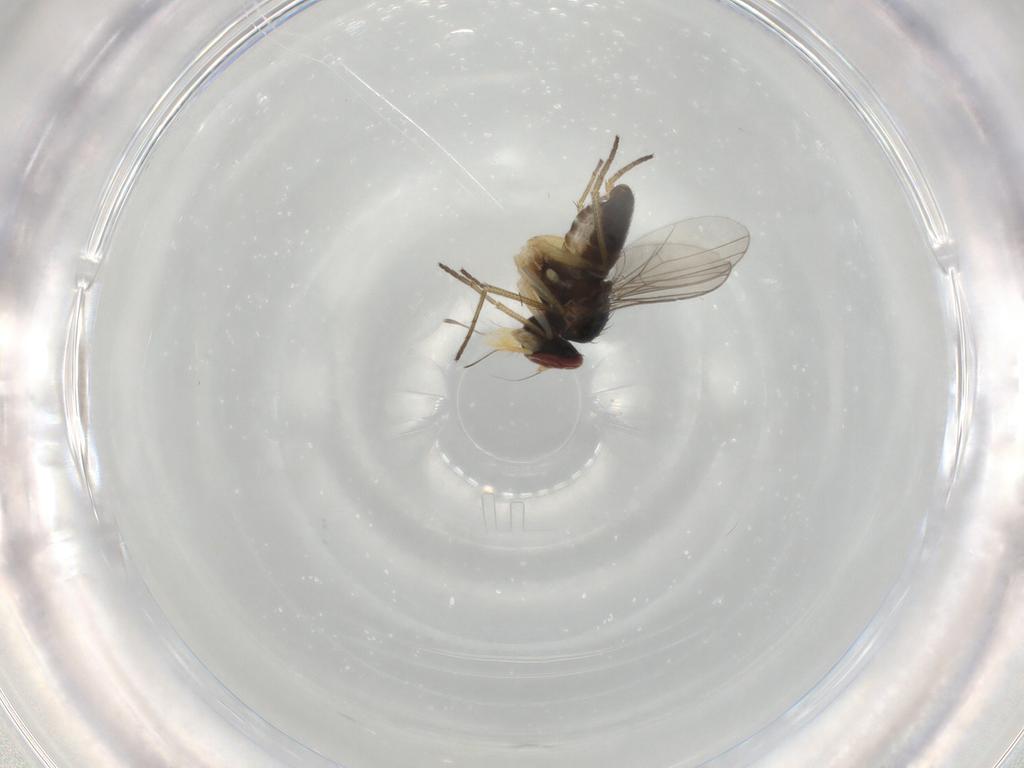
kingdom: Animalia
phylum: Arthropoda
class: Insecta
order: Diptera
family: Dolichopodidae
